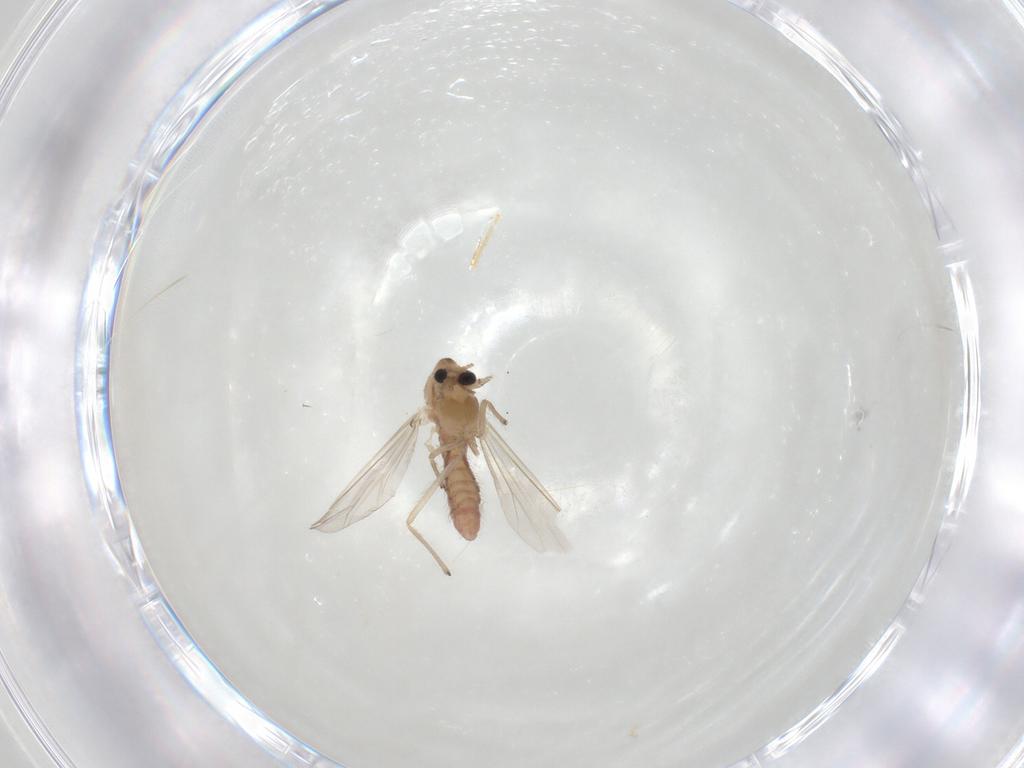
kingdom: Animalia
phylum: Arthropoda
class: Insecta
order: Diptera
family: Chironomidae
